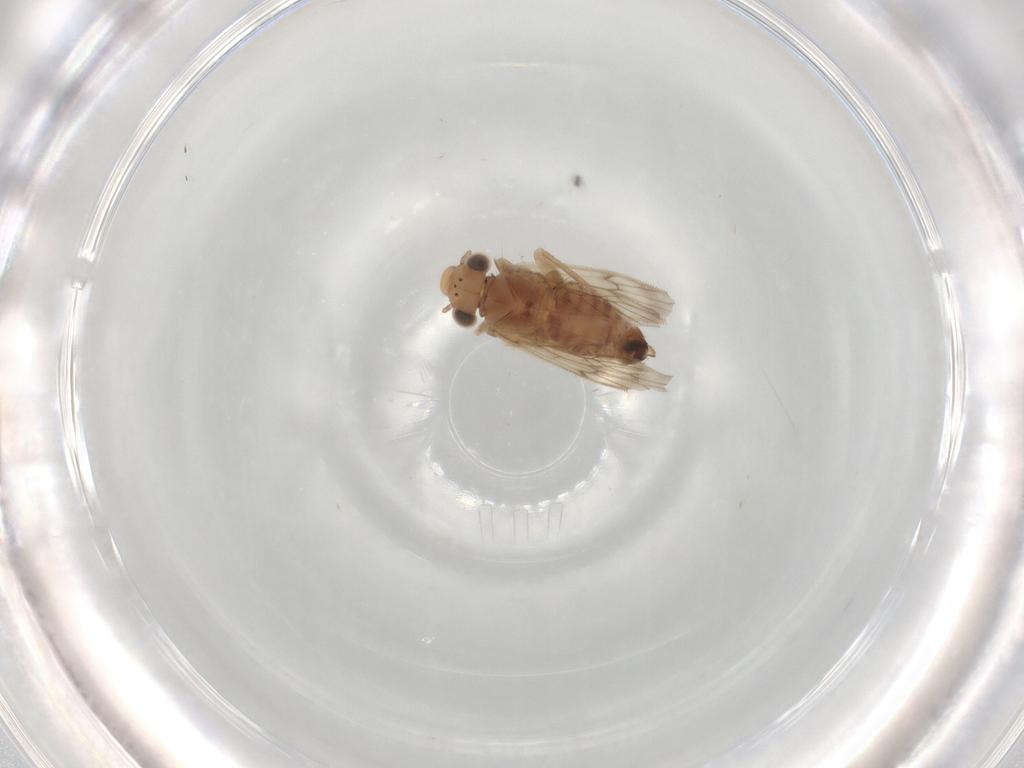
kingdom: Animalia
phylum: Arthropoda
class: Insecta
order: Psocodea
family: Lepidopsocidae
